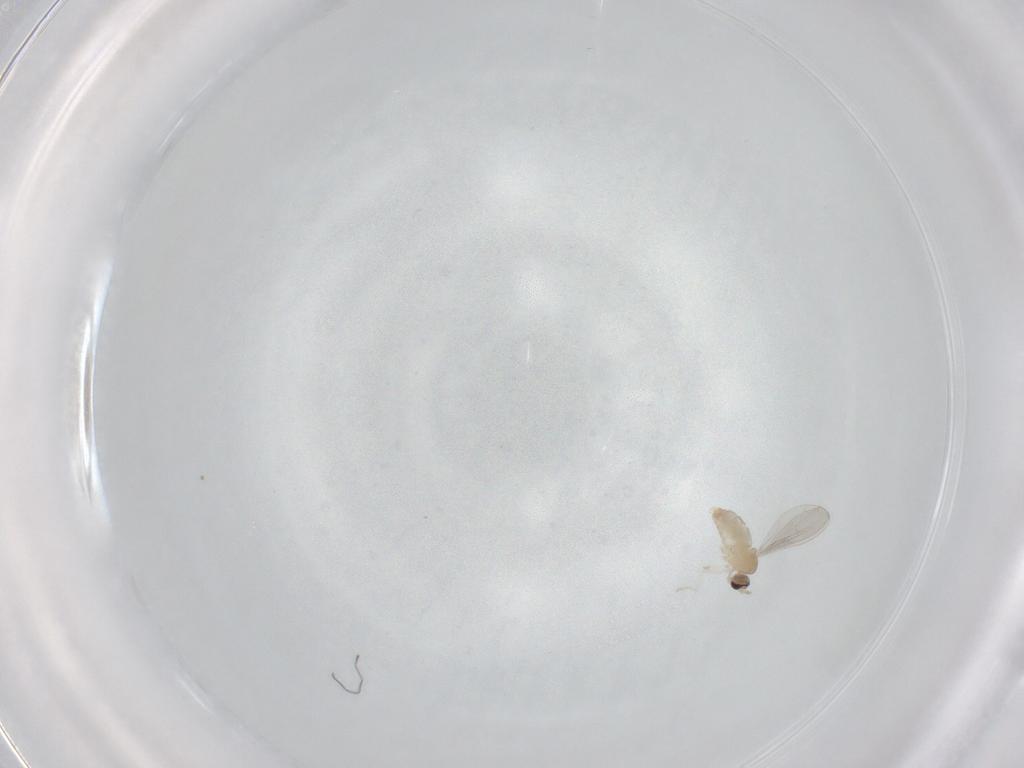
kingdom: Animalia
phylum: Arthropoda
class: Insecta
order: Diptera
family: Cecidomyiidae
